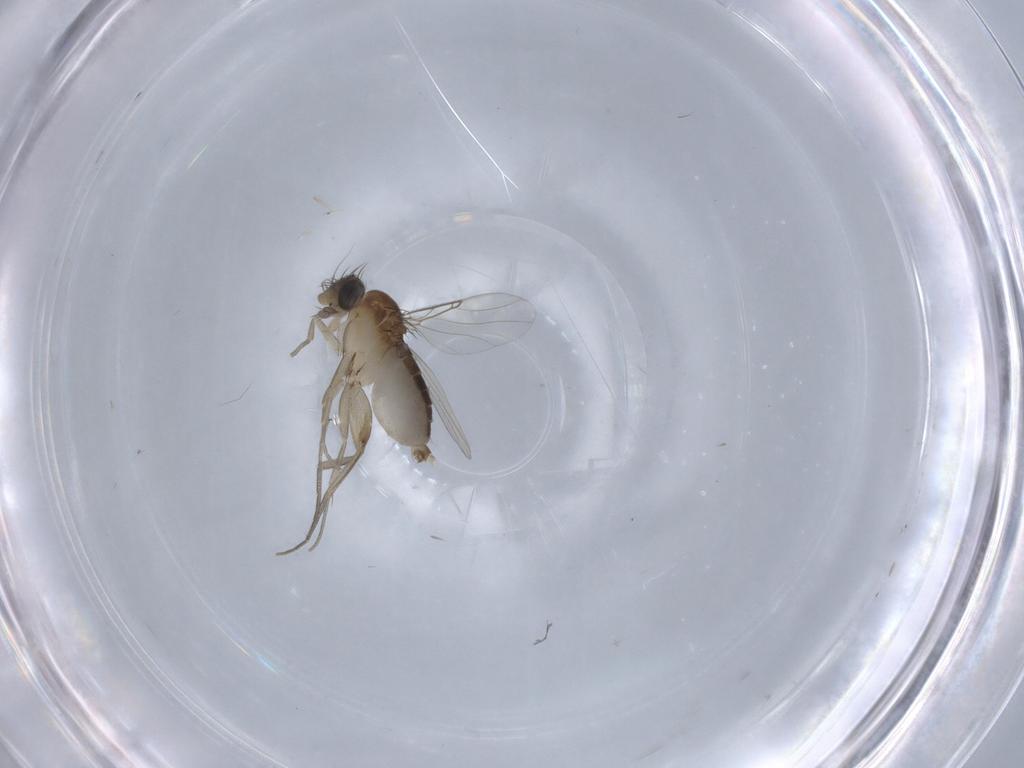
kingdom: Animalia
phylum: Arthropoda
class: Insecta
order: Diptera
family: Phoridae
